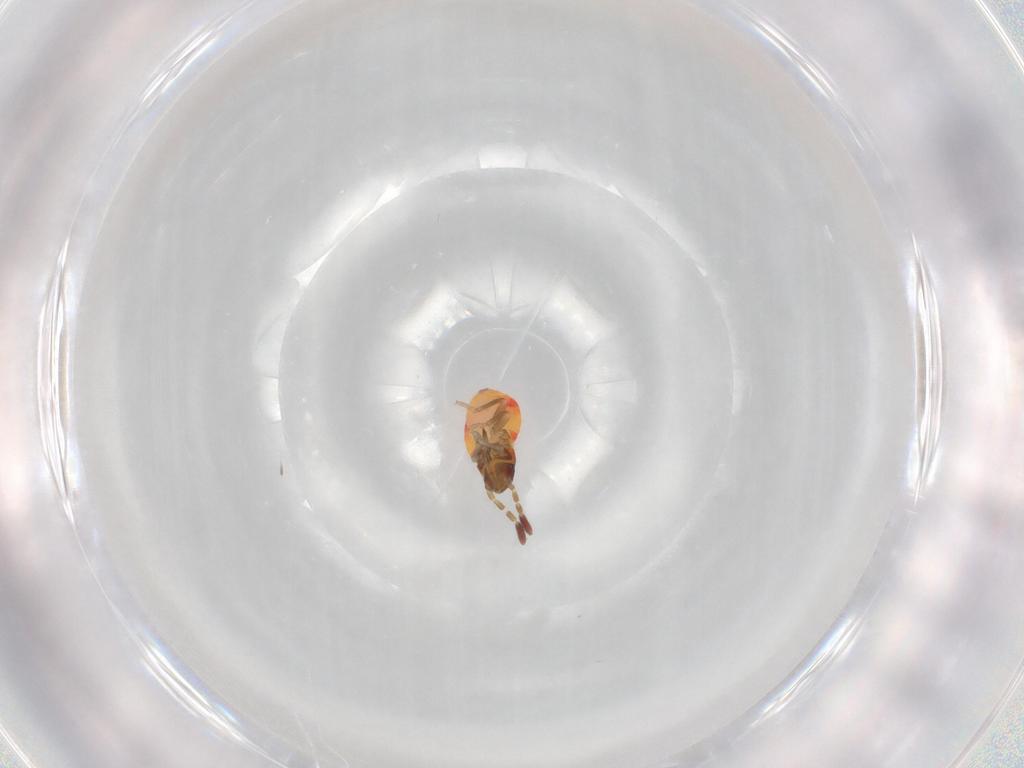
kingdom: Animalia
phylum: Arthropoda
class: Insecta
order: Hemiptera
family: Rhyparochromidae
